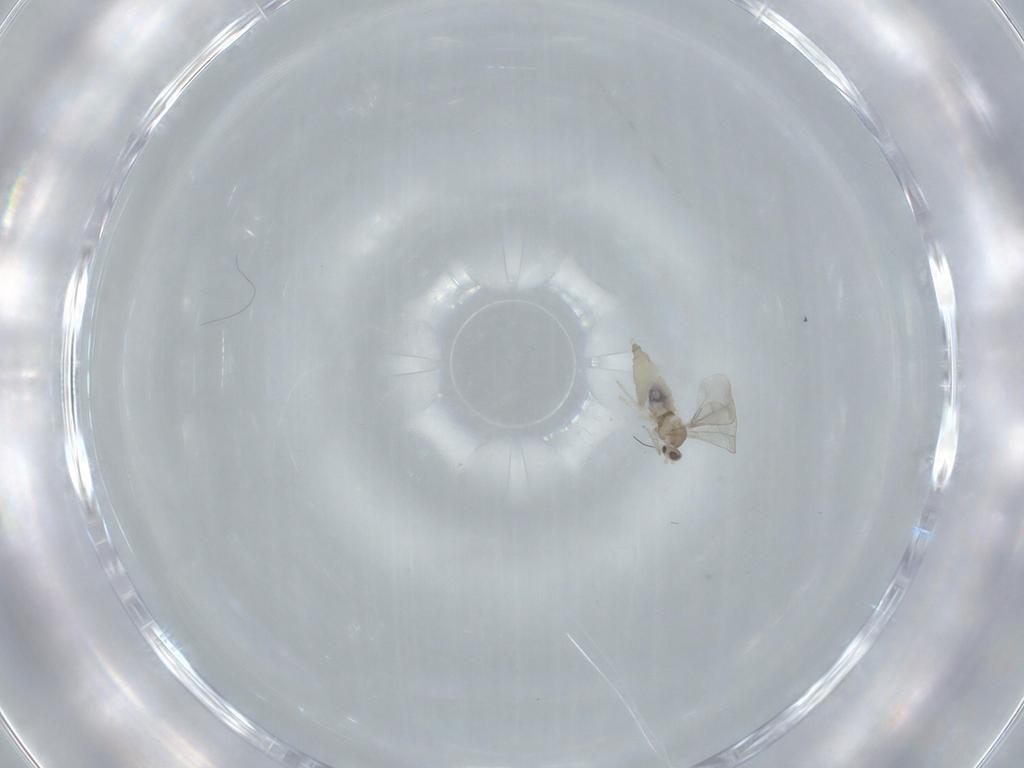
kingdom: Animalia
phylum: Arthropoda
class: Insecta
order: Diptera
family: Cecidomyiidae
